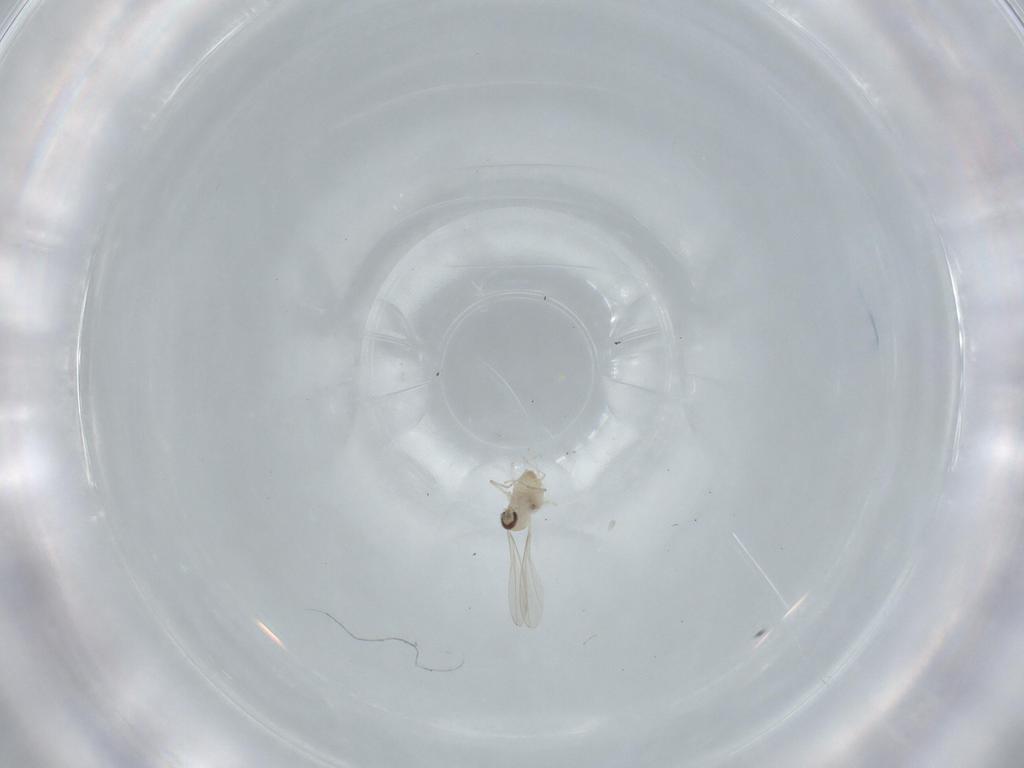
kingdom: Animalia
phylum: Arthropoda
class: Insecta
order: Diptera
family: Cecidomyiidae
